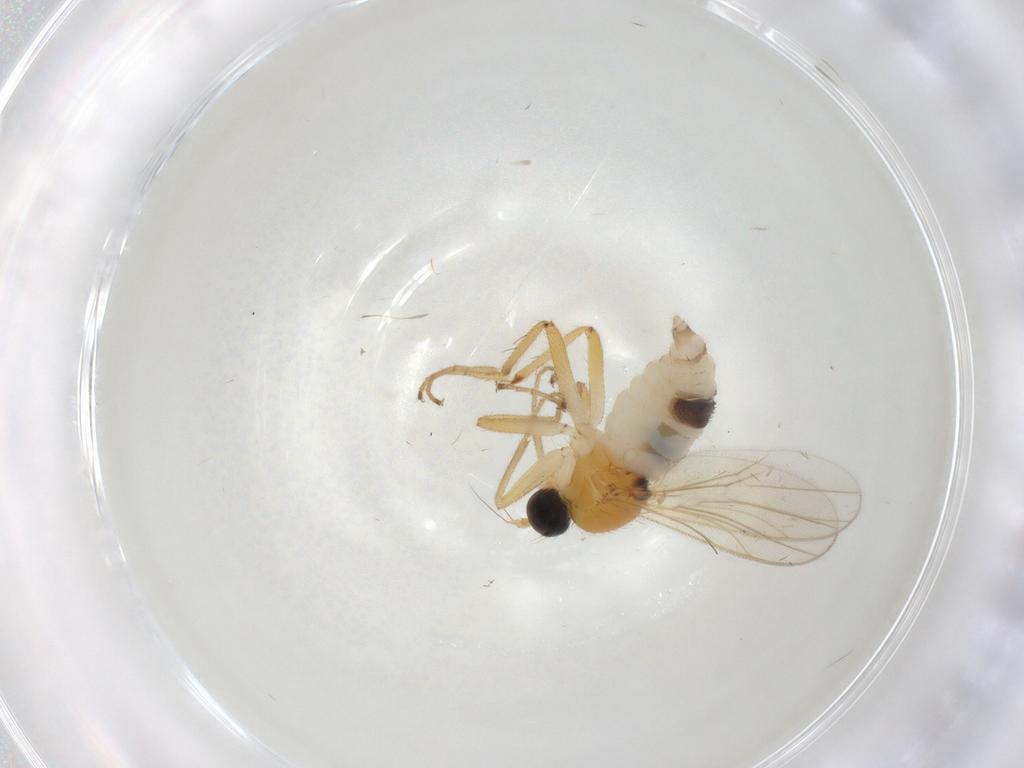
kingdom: Animalia
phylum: Arthropoda
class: Insecta
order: Diptera
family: Hybotidae
